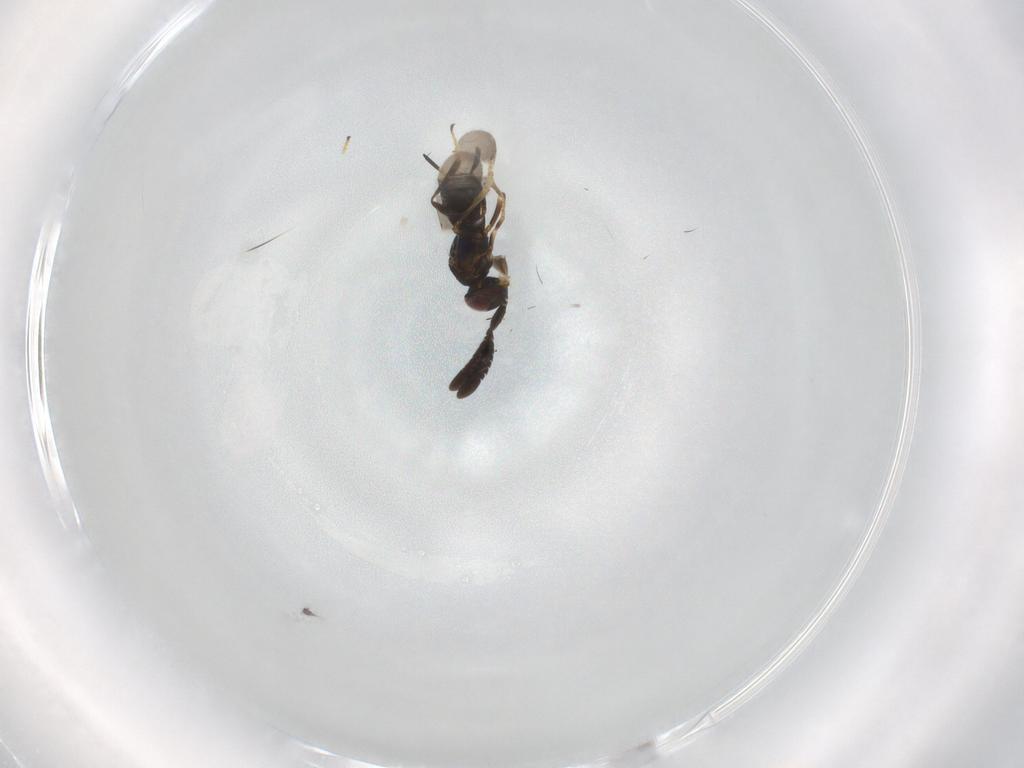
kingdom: Animalia
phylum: Arthropoda
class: Insecta
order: Hymenoptera
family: Encyrtidae
